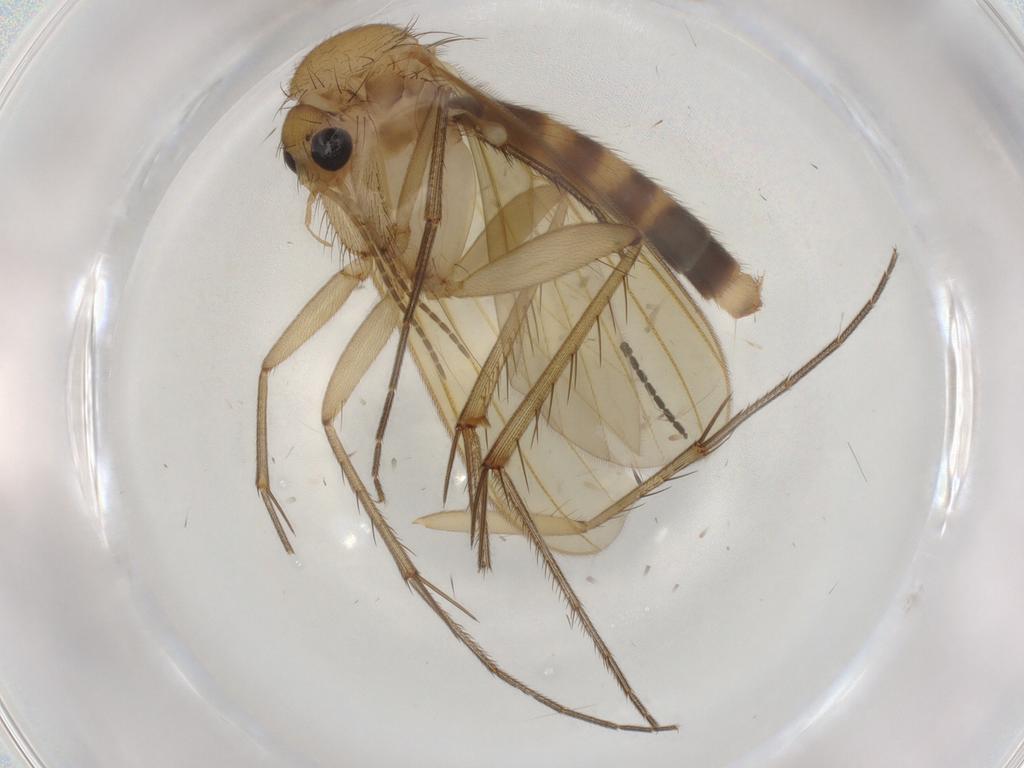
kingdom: Animalia
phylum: Arthropoda
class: Insecta
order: Diptera
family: Mycetophilidae
